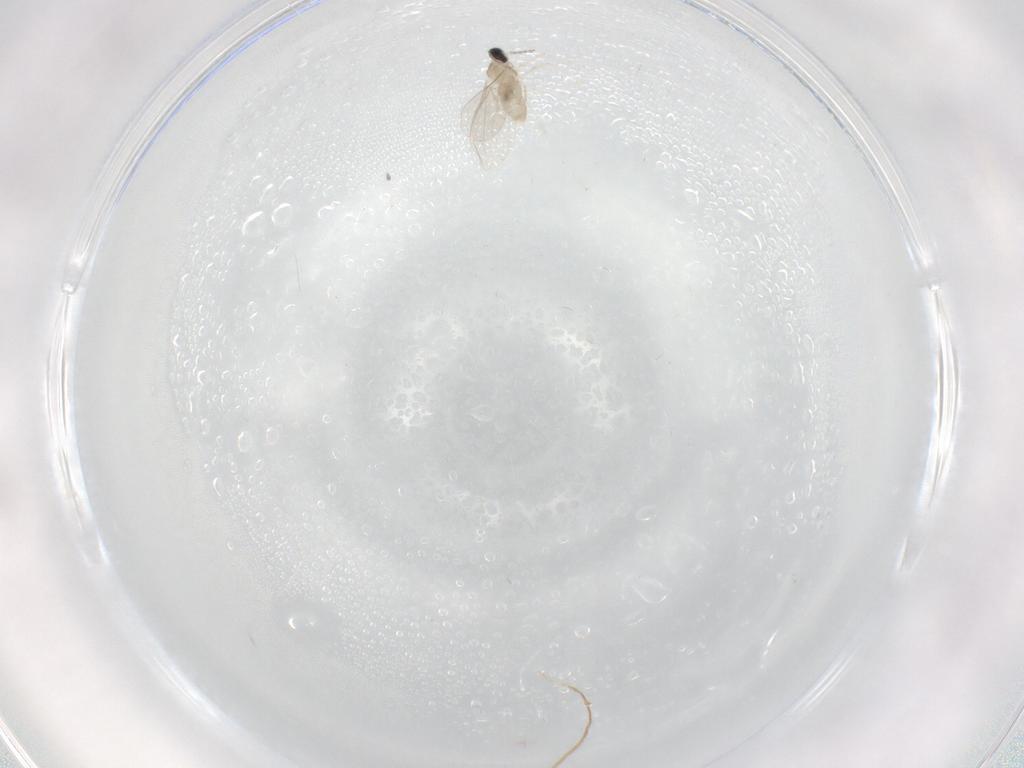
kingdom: Animalia
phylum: Arthropoda
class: Insecta
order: Diptera
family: Cecidomyiidae
